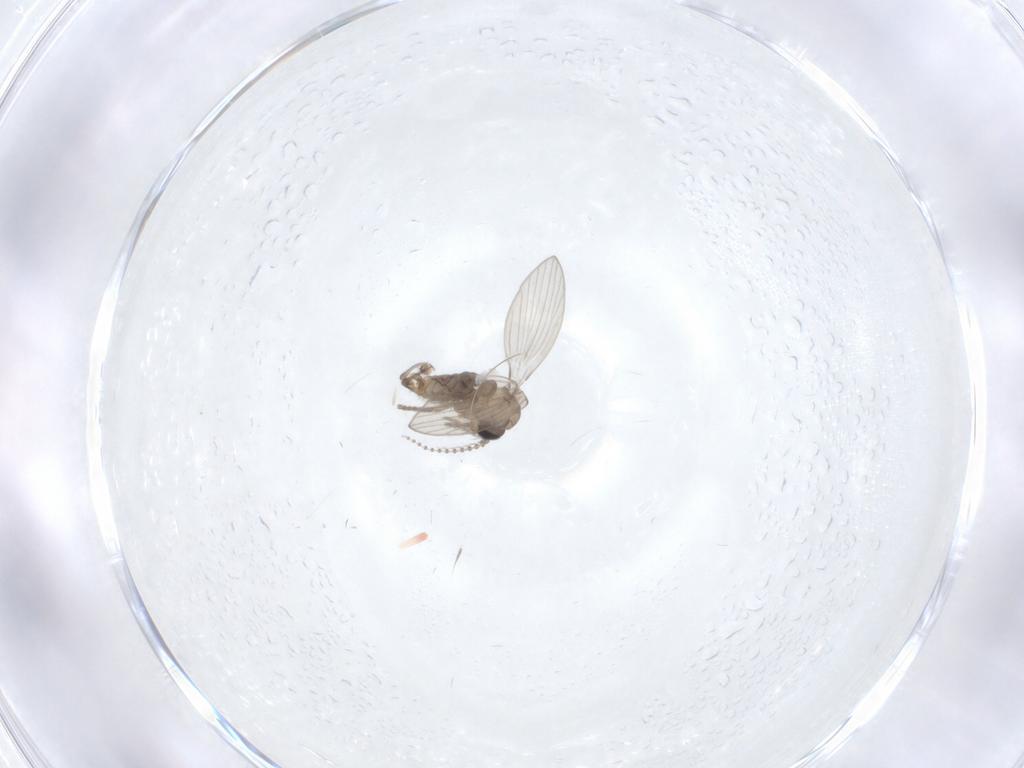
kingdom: Animalia
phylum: Arthropoda
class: Insecta
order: Diptera
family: Psychodidae
